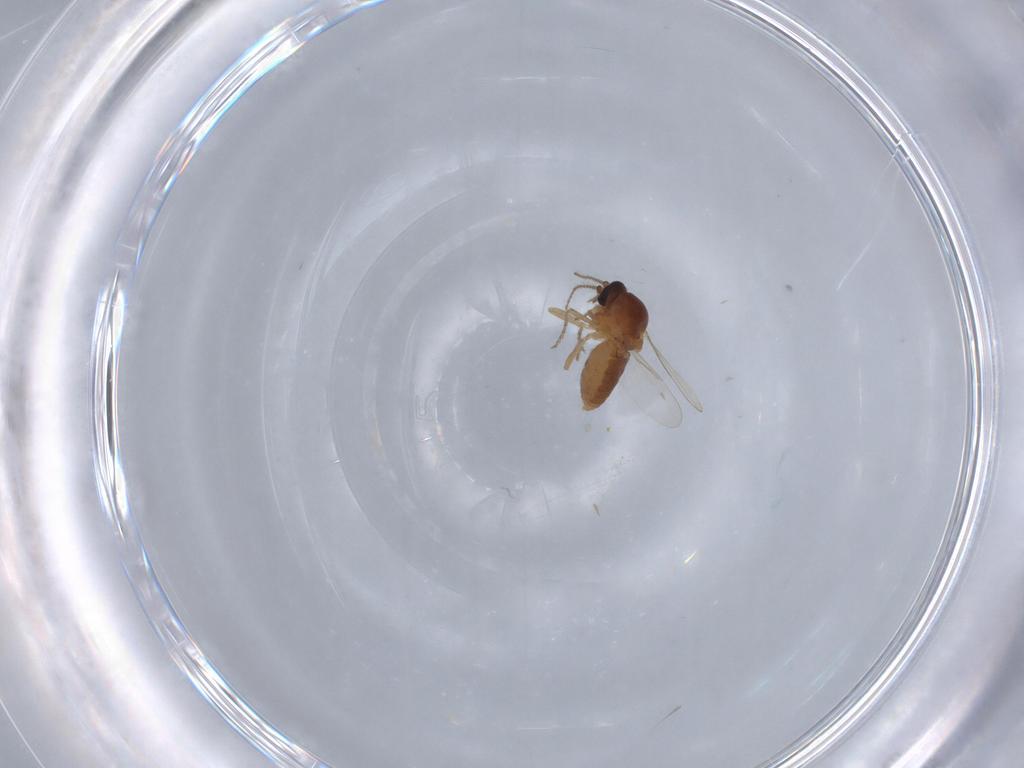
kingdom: Animalia
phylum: Arthropoda
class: Insecta
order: Diptera
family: Ceratopogonidae
